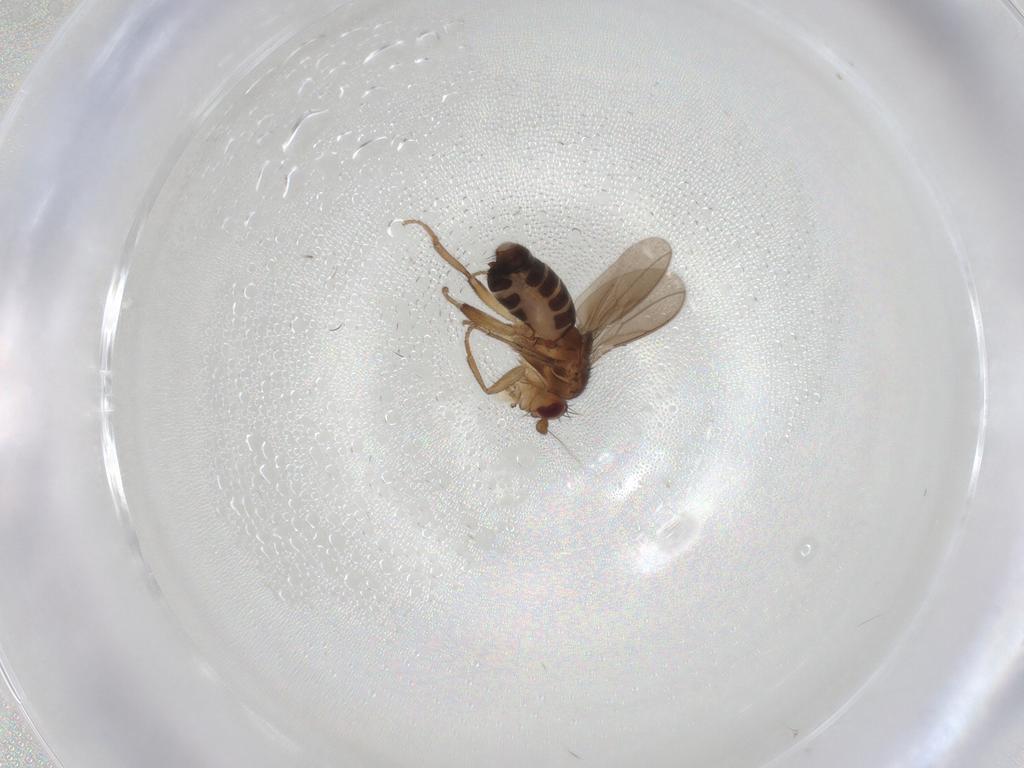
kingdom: Animalia
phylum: Arthropoda
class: Insecta
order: Diptera
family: Sphaeroceridae
